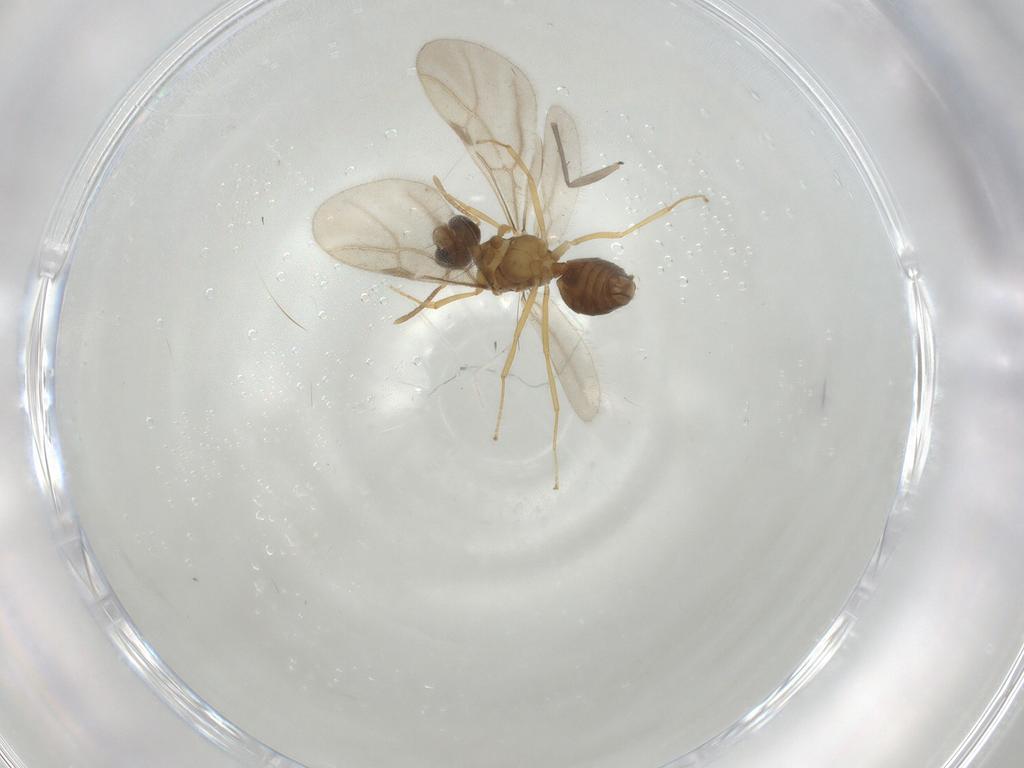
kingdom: Animalia
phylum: Arthropoda
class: Insecta
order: Hymenoptera
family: Formicidae
